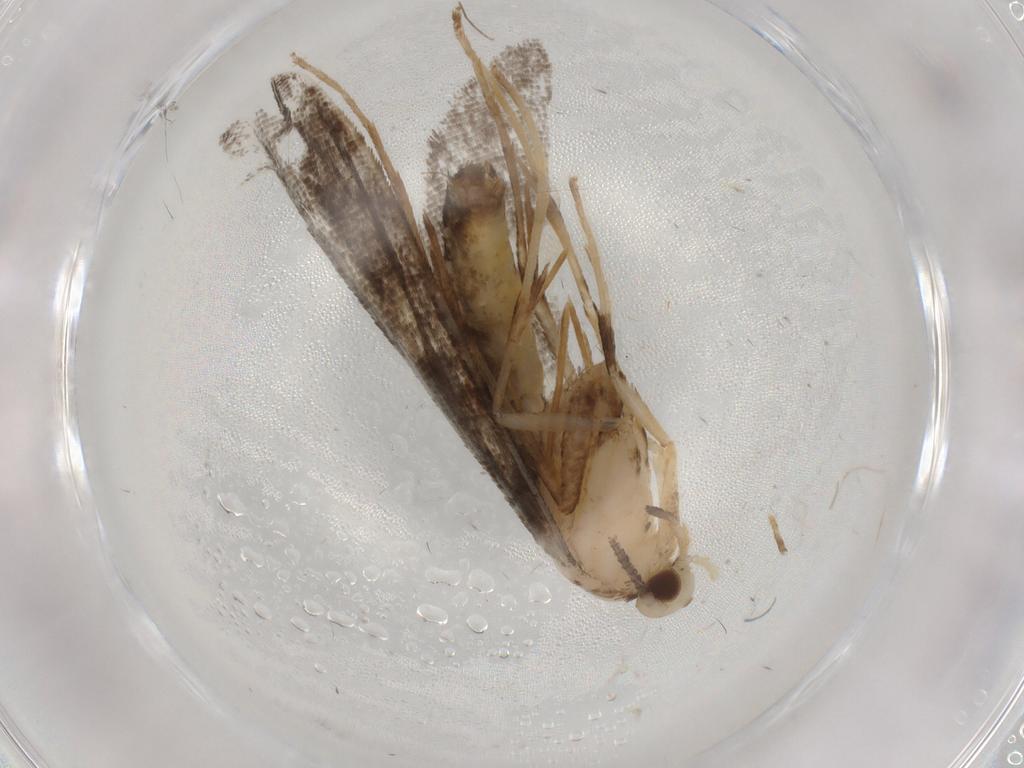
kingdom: Animalia
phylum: Arthropoda
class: Insecta
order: Lepidoptera
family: Nepticulidae
